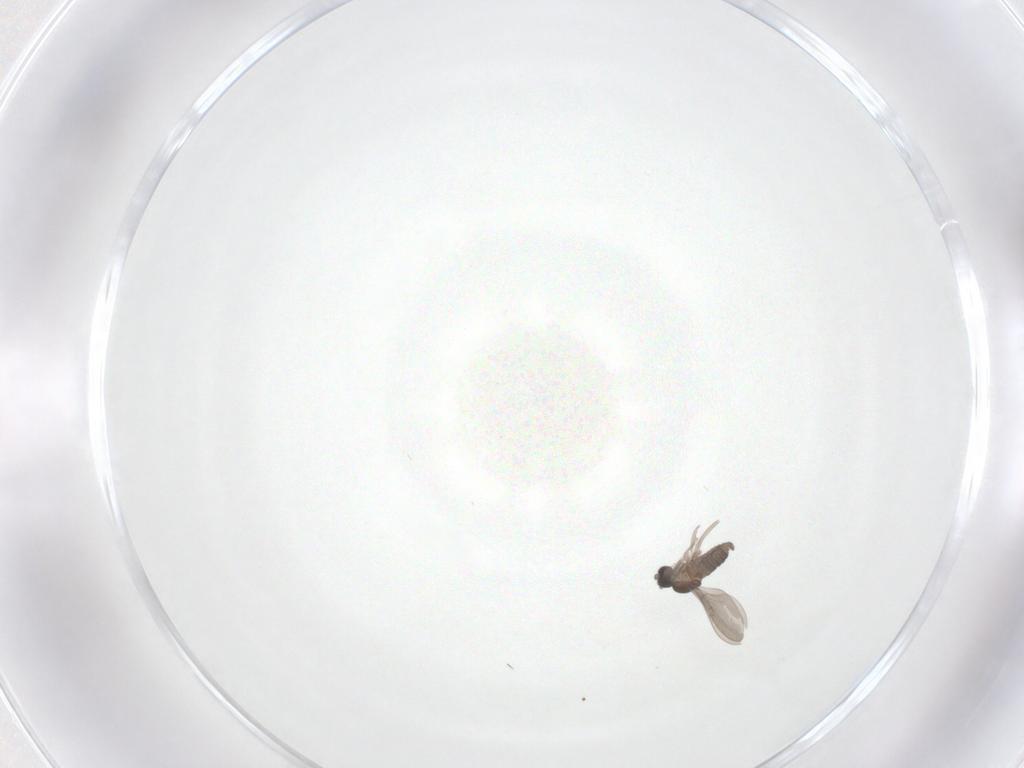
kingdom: Animalia
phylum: Arthropoda
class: Insecta
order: Diptera
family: Cecidomyiidae
